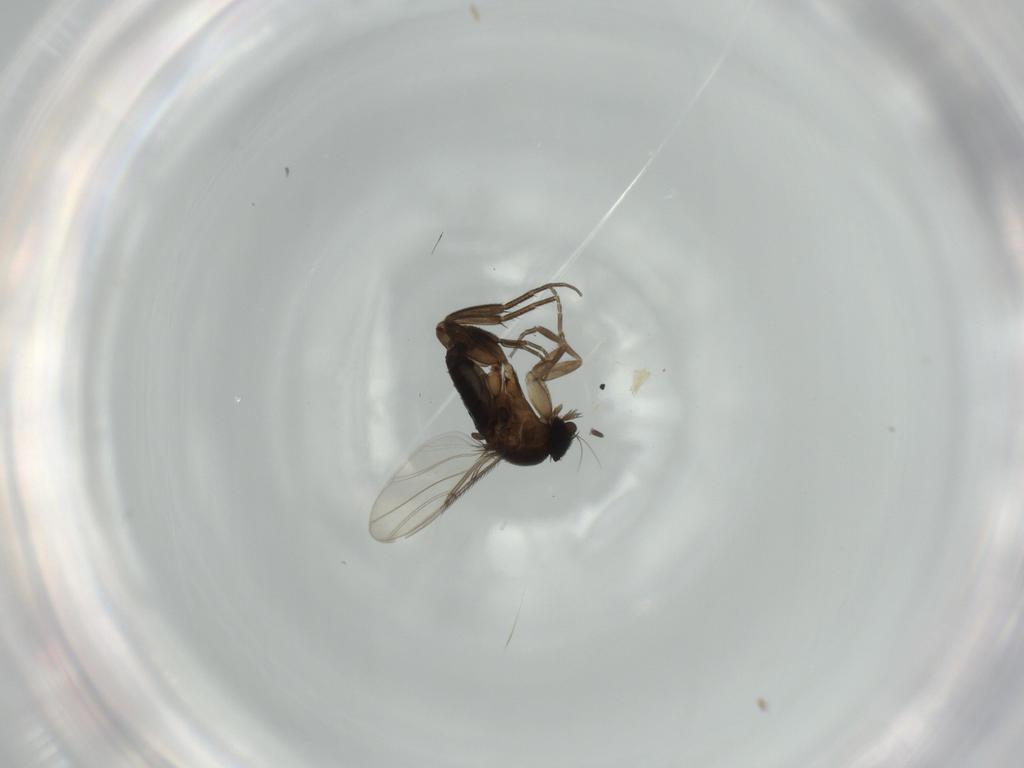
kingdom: Animalia
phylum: Arthropoda
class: Insecta
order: Diptera
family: Phoridae
